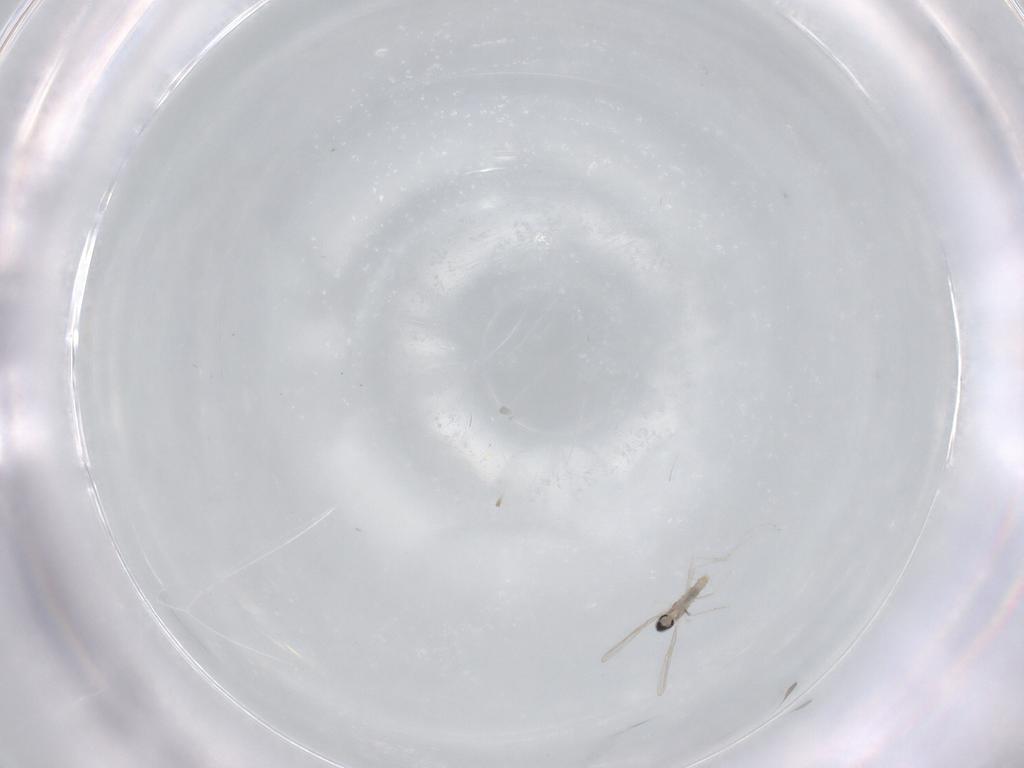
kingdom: Animalia
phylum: Arthropoda
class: Insecta
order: Diptera
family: Cecidomyiidae
